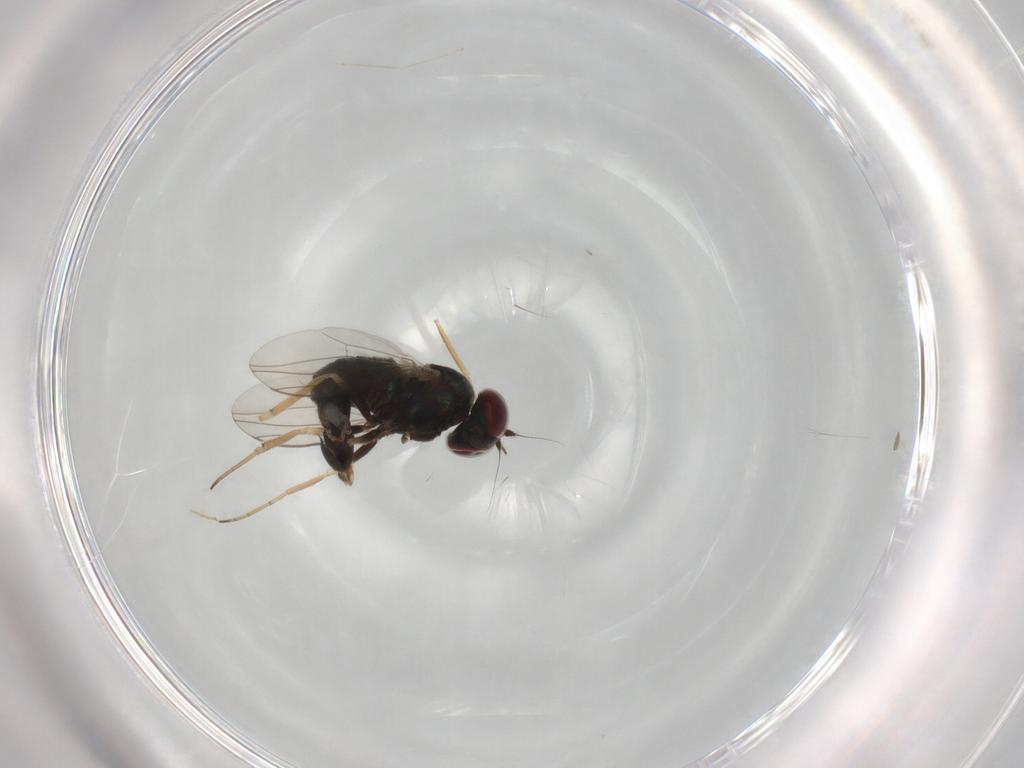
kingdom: Animalia
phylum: Arthropoda
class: Insecta
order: Diptera
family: Dolichopodidae
